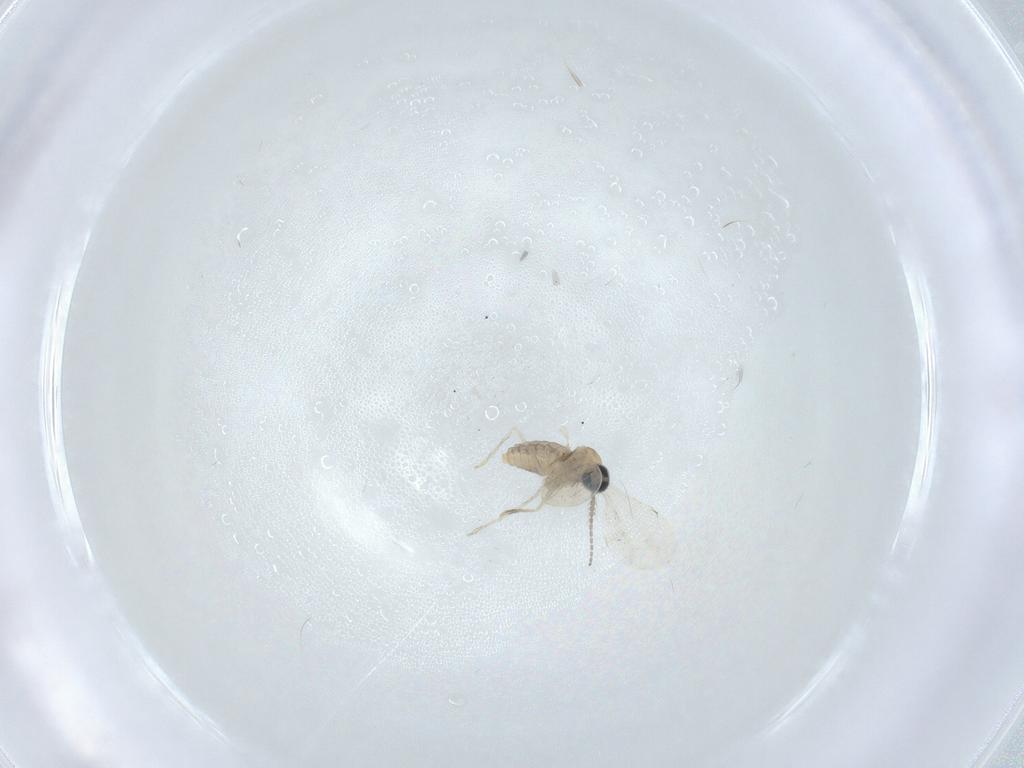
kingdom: Animalia
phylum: Arthropoda
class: Insecta
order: Diptera
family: Cecidomyiidae
